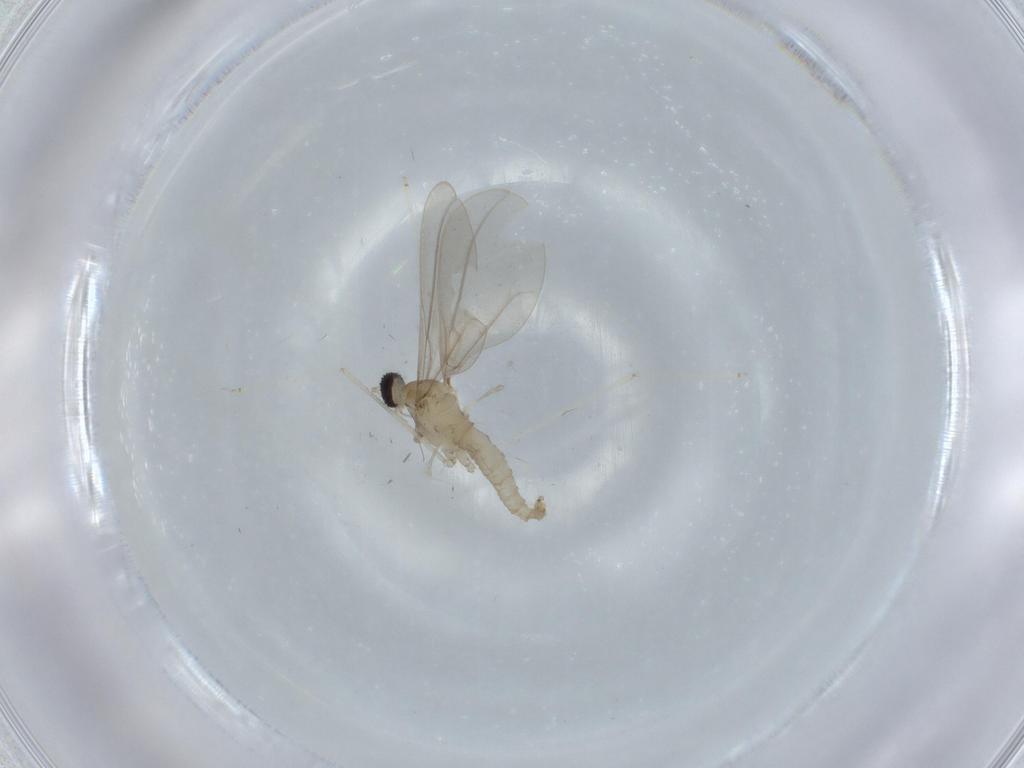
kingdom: Animalia
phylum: Arthropoda
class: Insecta
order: Diptera
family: Cecidomyiidae
